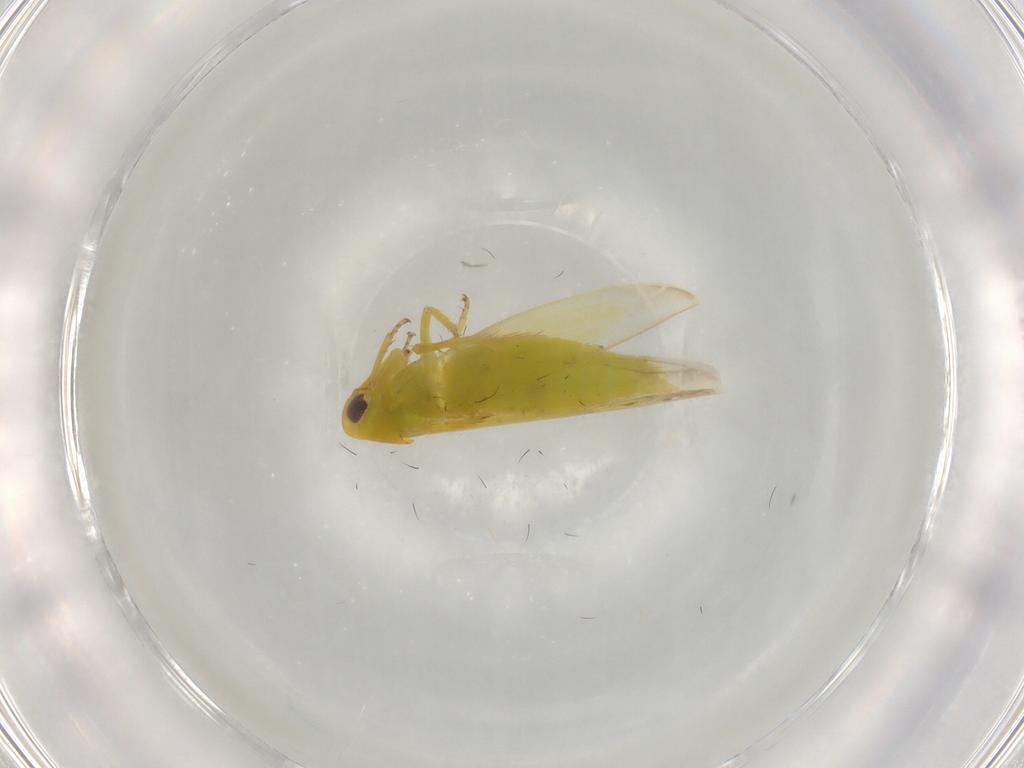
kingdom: Animalia
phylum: Arthropoda
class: Insecta
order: Hemiptera
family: Cicadellidae
